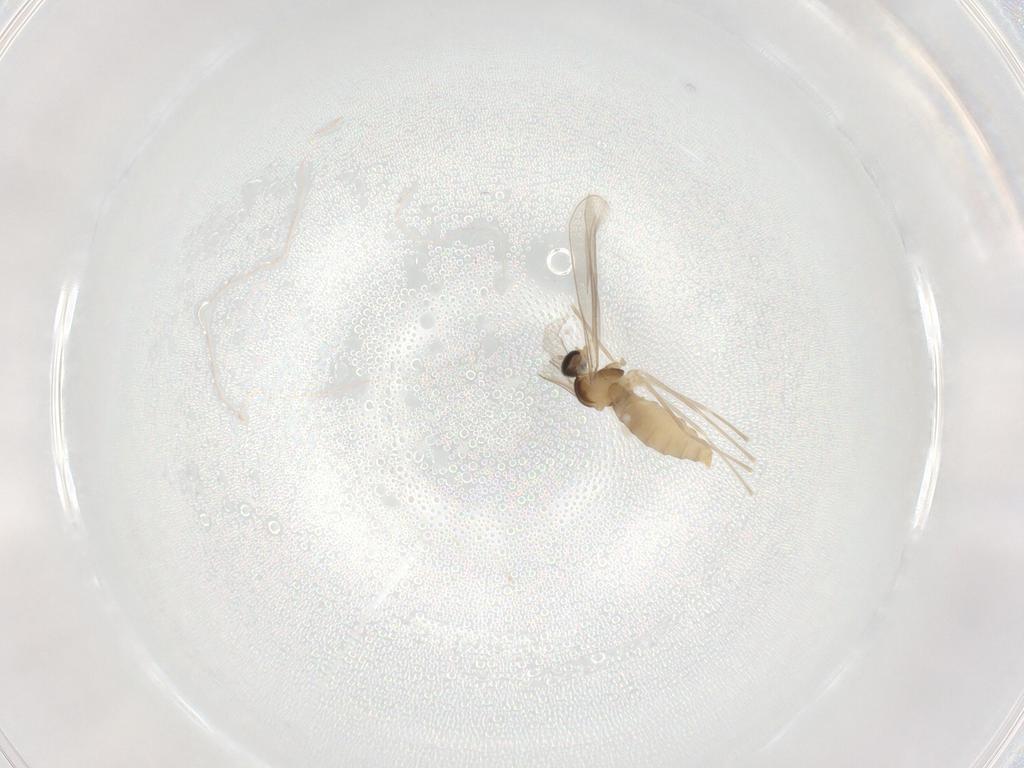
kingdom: Animalia
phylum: Arthropoda
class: Insecta
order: Diptera
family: Cecidomyiidae
